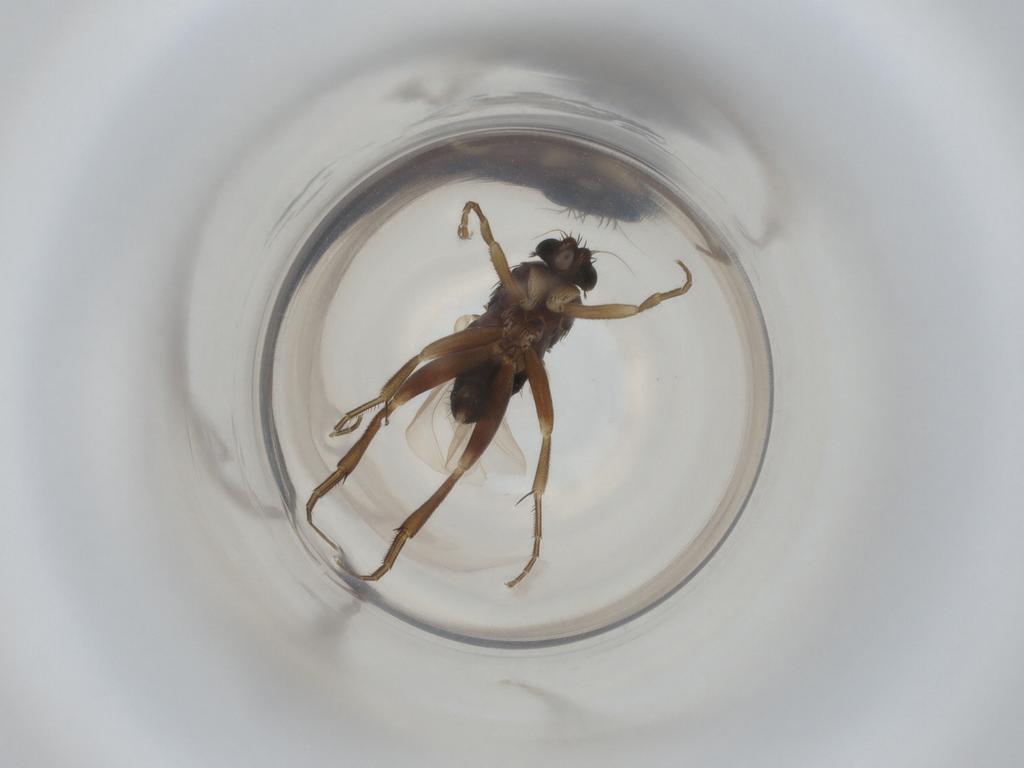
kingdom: Animalia
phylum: Arthropoda
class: Insecta
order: Diptera
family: Phoridae
